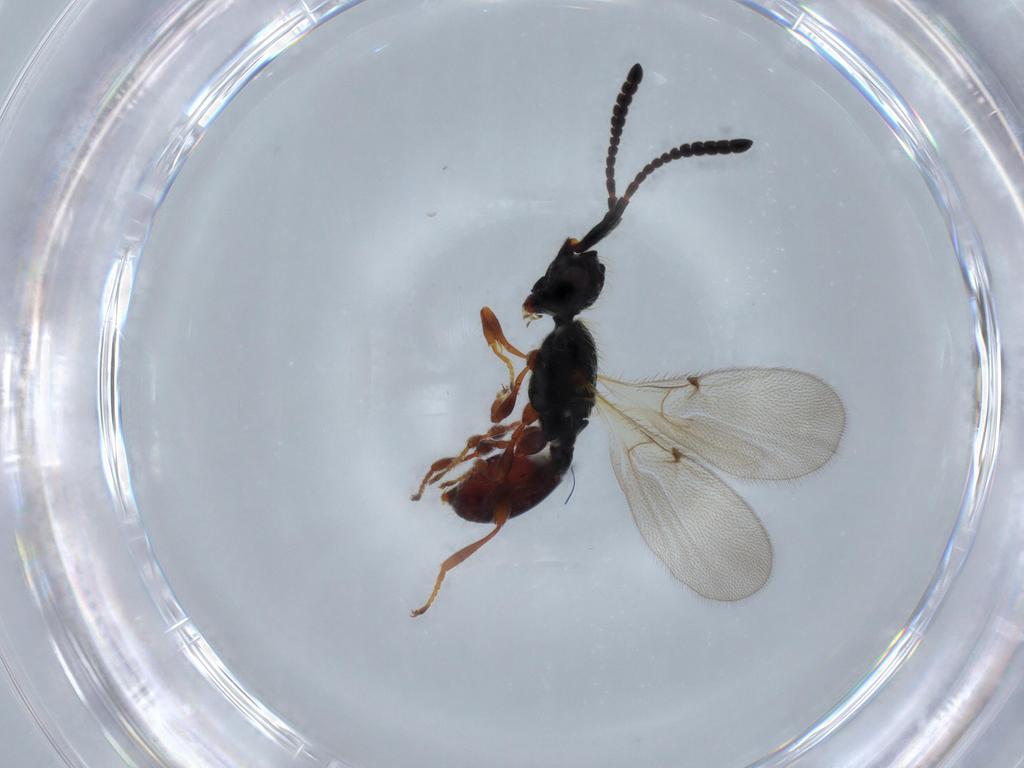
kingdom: Animalia
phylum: Arthropoda
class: Insecta
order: Hymenoptera
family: Diapriidae
